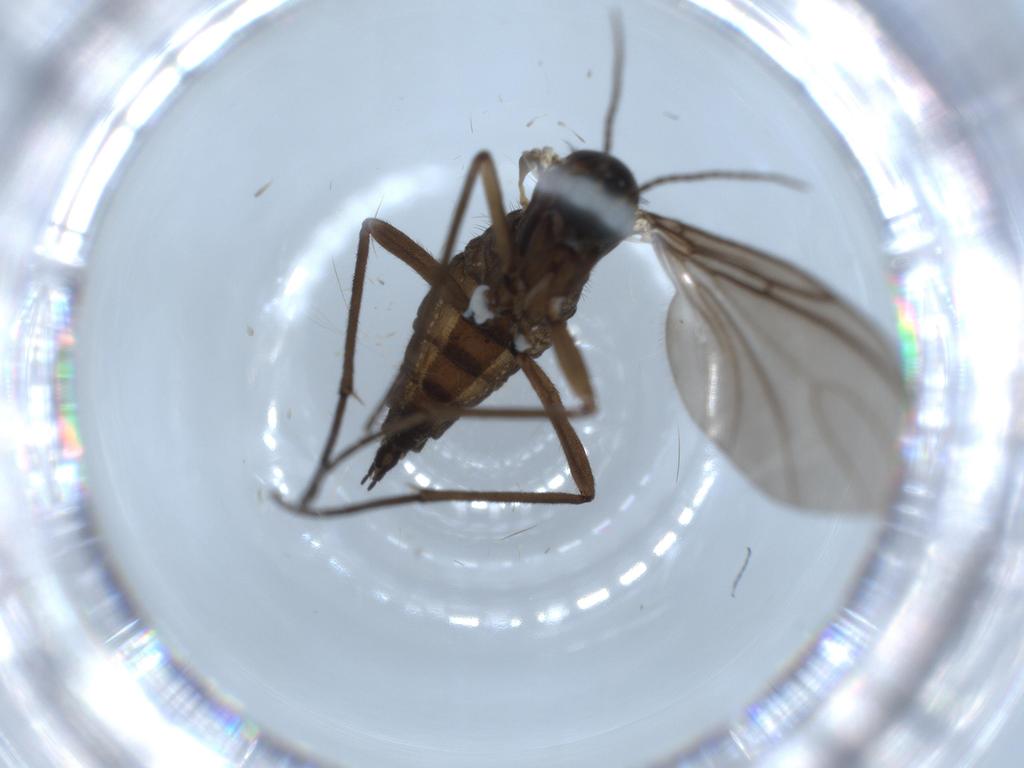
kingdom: Animalia
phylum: Arthropoda
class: Insecta
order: Diptera
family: Sciaridae
